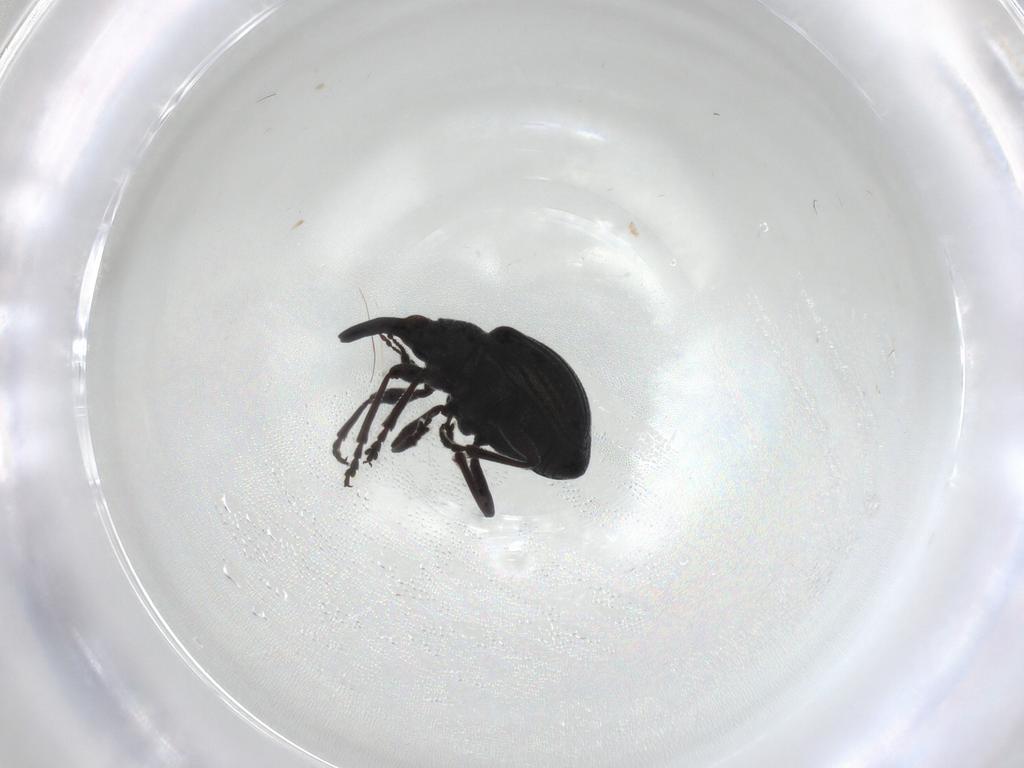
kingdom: Animalia
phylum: Arthropoda
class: Insecta
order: Coleoptera
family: Brentidae
